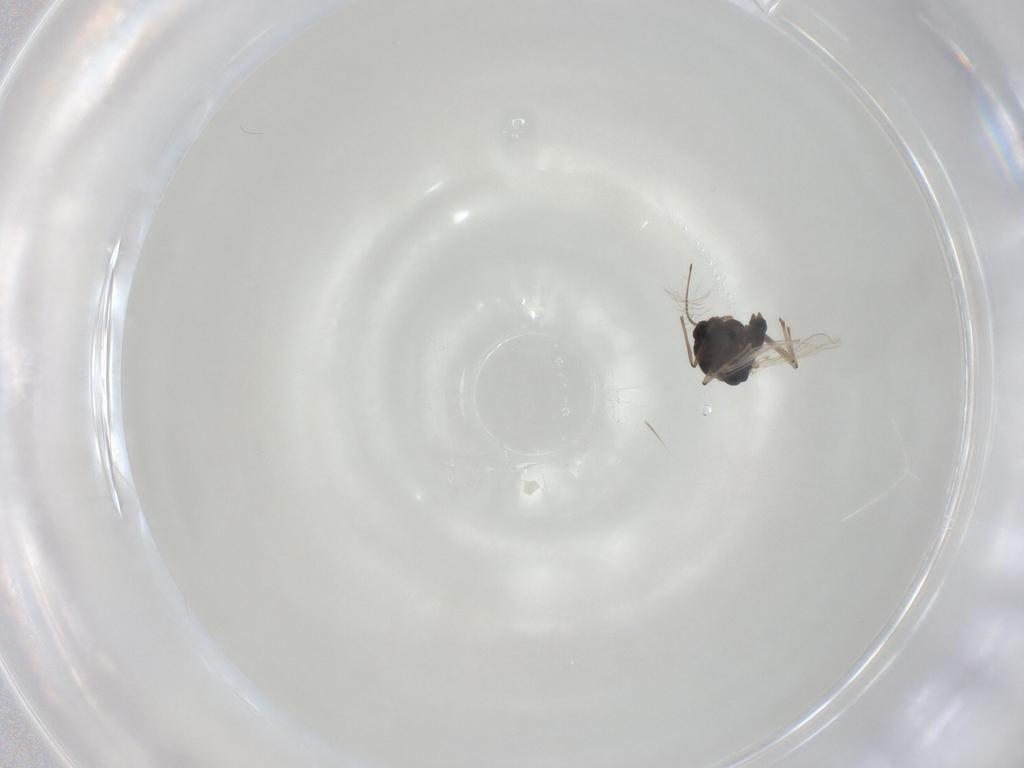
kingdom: Animalia
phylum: Arthropoda
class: Insecta
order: Diptera
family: Chironomidae
